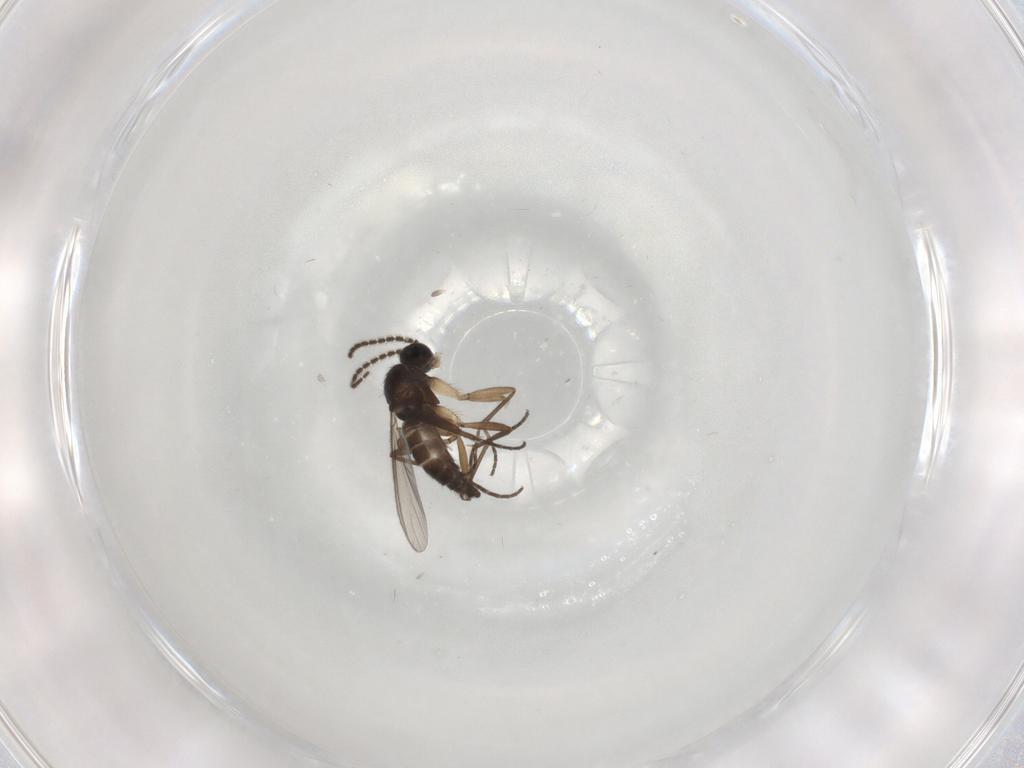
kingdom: Animalia
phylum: Arthropoda
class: Insecta
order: Diptera
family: Sciaridae
